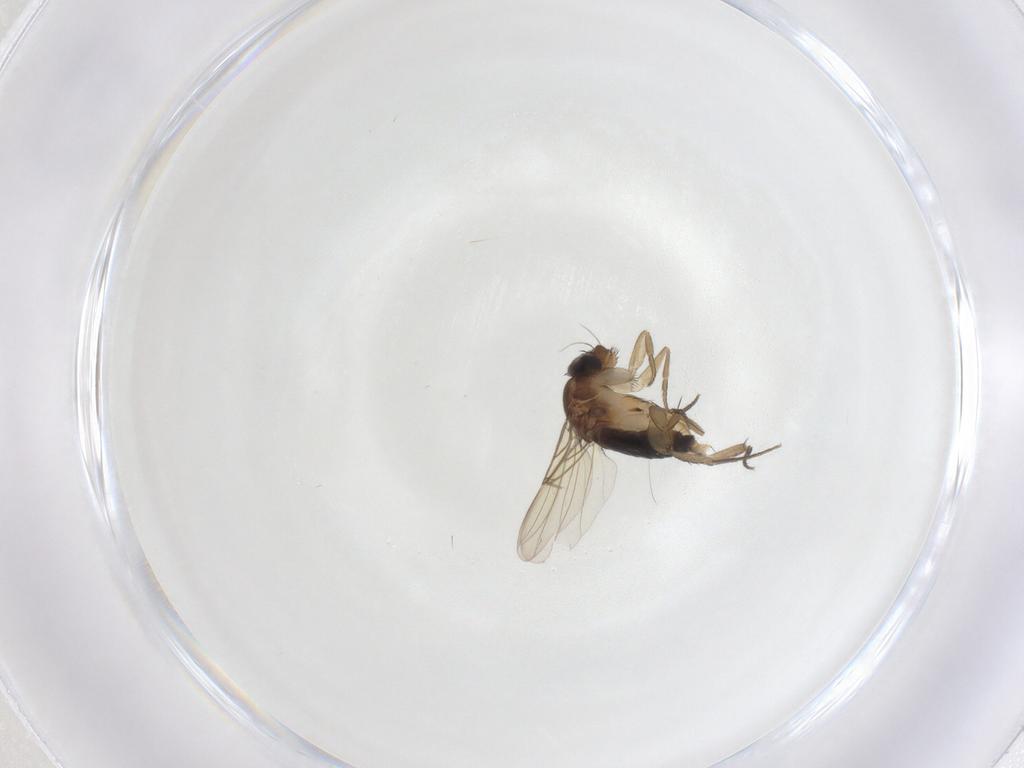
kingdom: Animalia
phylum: Arthropoda
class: Insecta
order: Diptera
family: Phoridae
